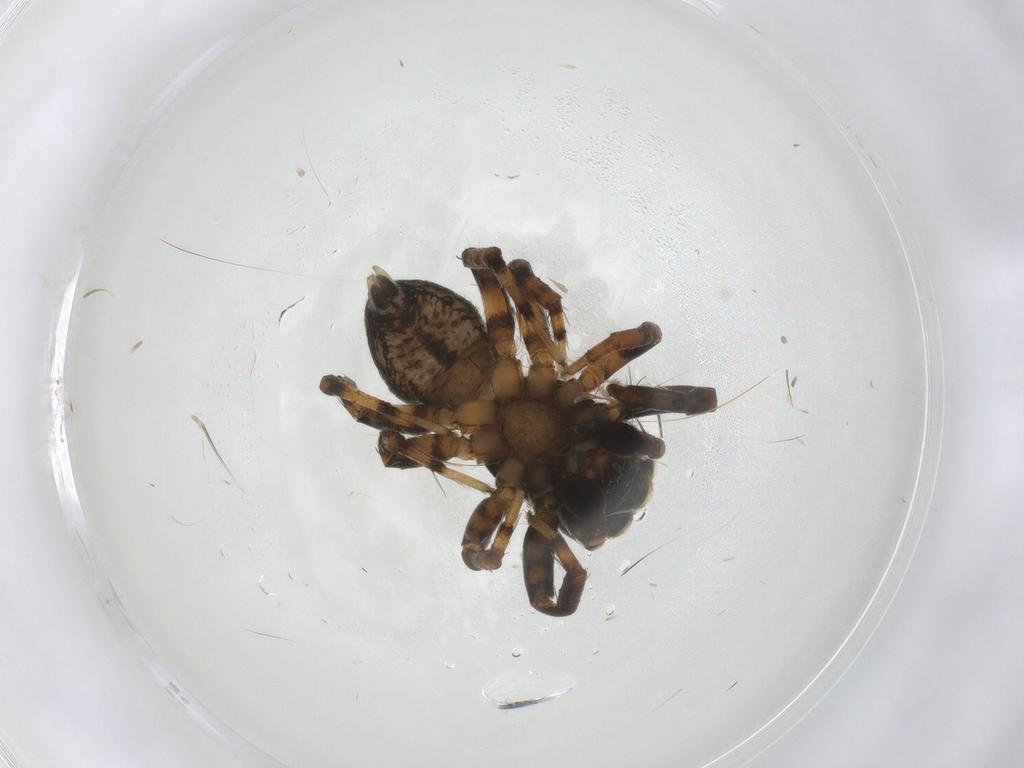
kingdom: Animalia
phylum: Arthropoda
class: Arachnida
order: Araneae
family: Salticidae
